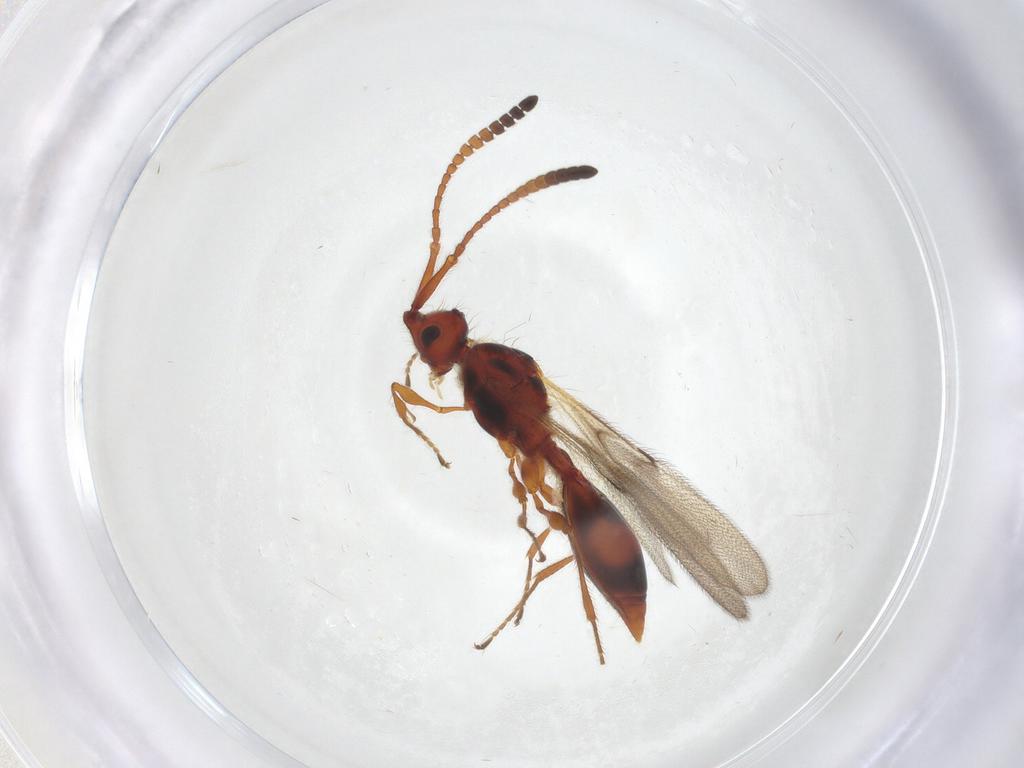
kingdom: Animalia
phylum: Arthropoda
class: Insecta
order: Hymenoptera
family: Diapriidae
